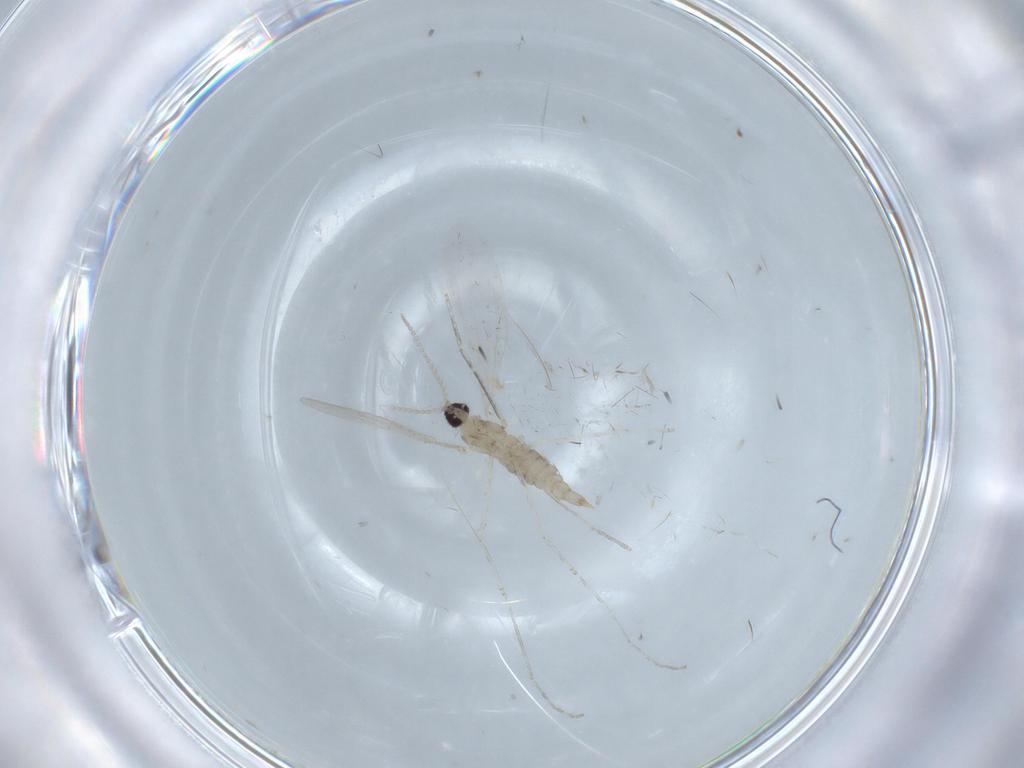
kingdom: Animalia
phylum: Arthropoda
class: Insecta
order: Diptera
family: Cecidomyiidae
